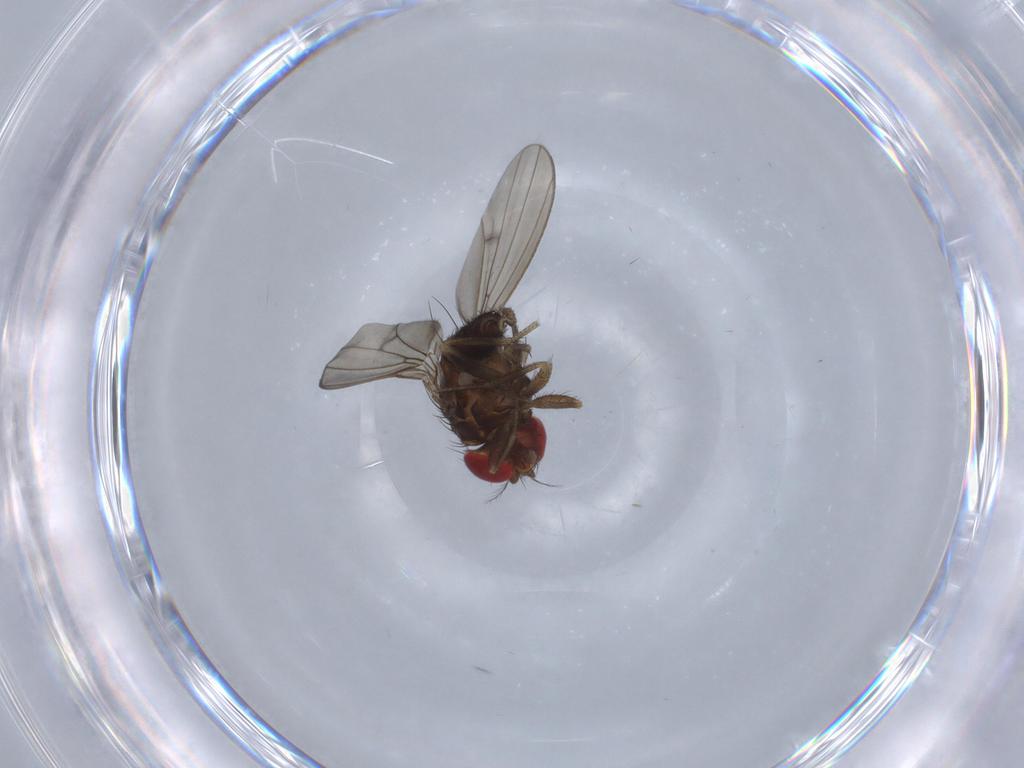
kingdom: Animalia
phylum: Arthropoda
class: Insecta
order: Diptera
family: Drosophilidae
